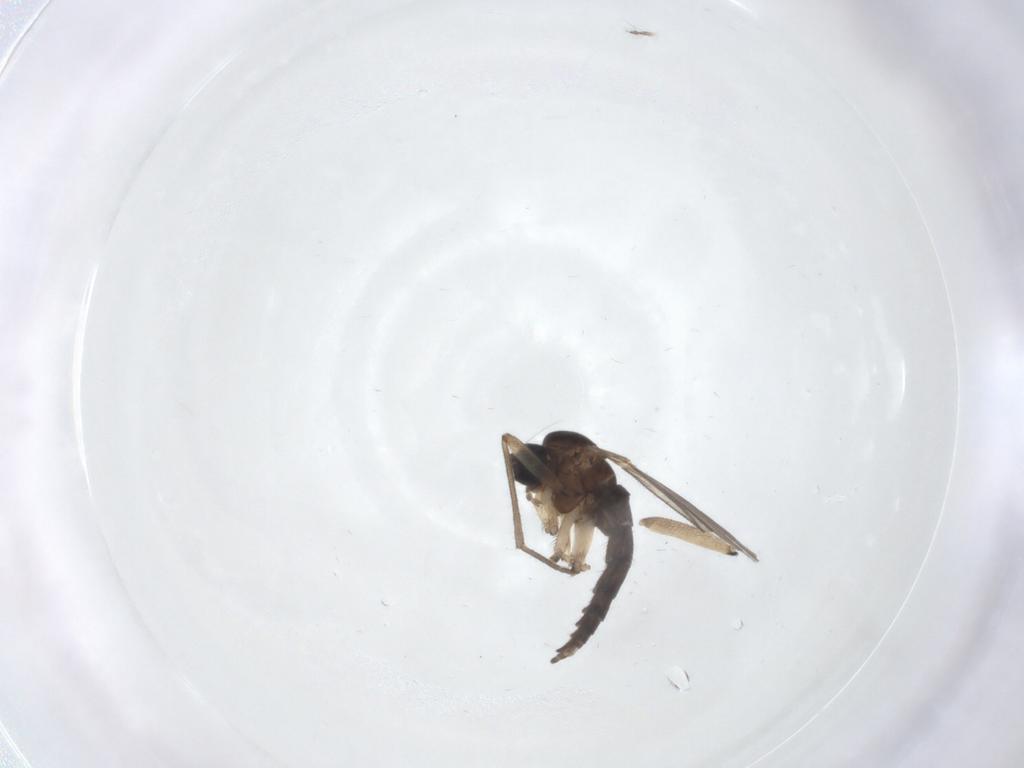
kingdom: Animalia
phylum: Arthropoda
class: Insecta
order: Diptera
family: Sciaridae
